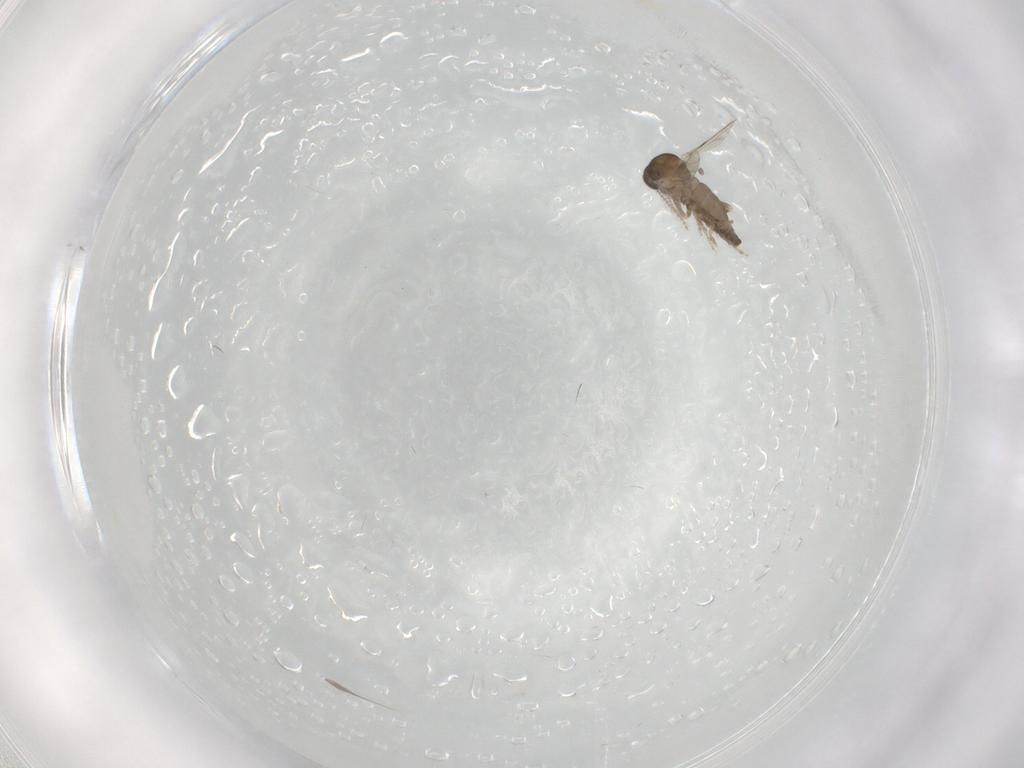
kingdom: Animalia
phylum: Arthropoda
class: Insecta
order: Diptera
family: Ceratopogonidae
